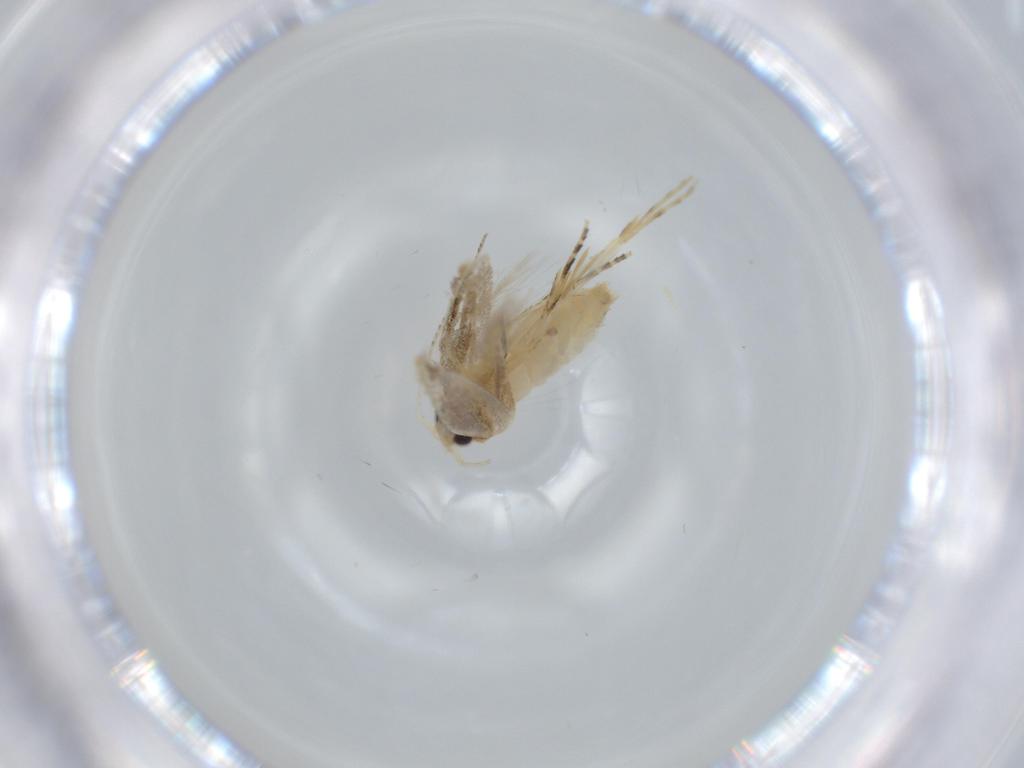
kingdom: Animalia
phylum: Arthropoda
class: Insecta
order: Lepidoptera
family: Bucculatricidae
